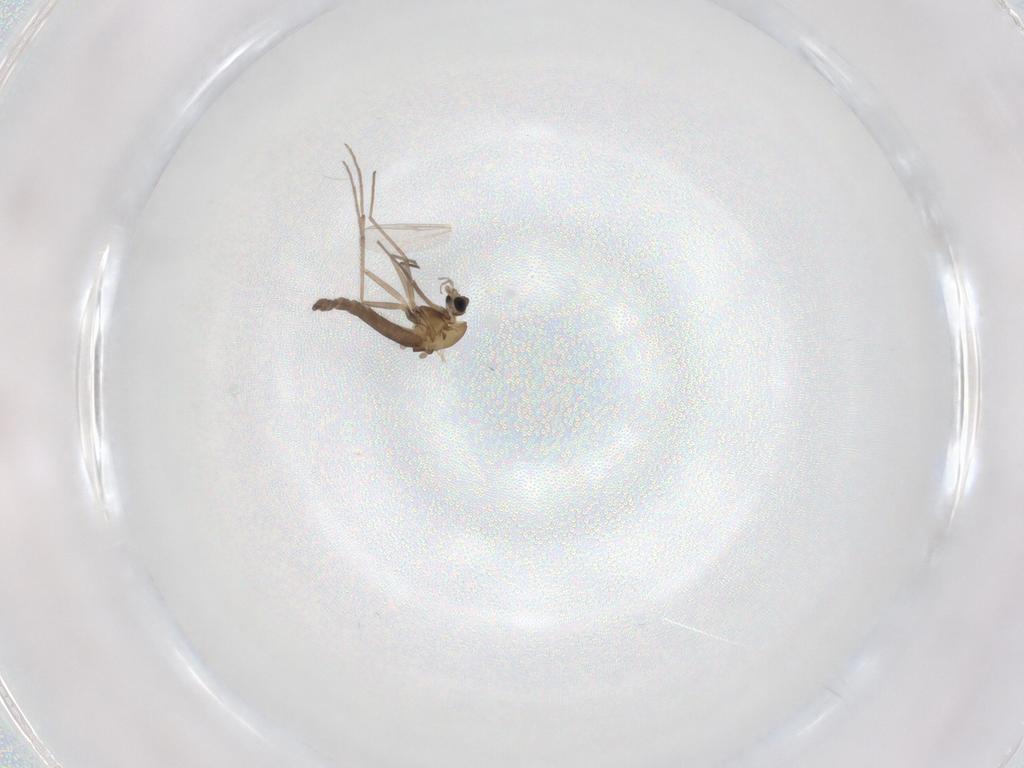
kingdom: Animalia
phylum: Arthropoda
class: Insecta
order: Diptera
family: Chironomidae
